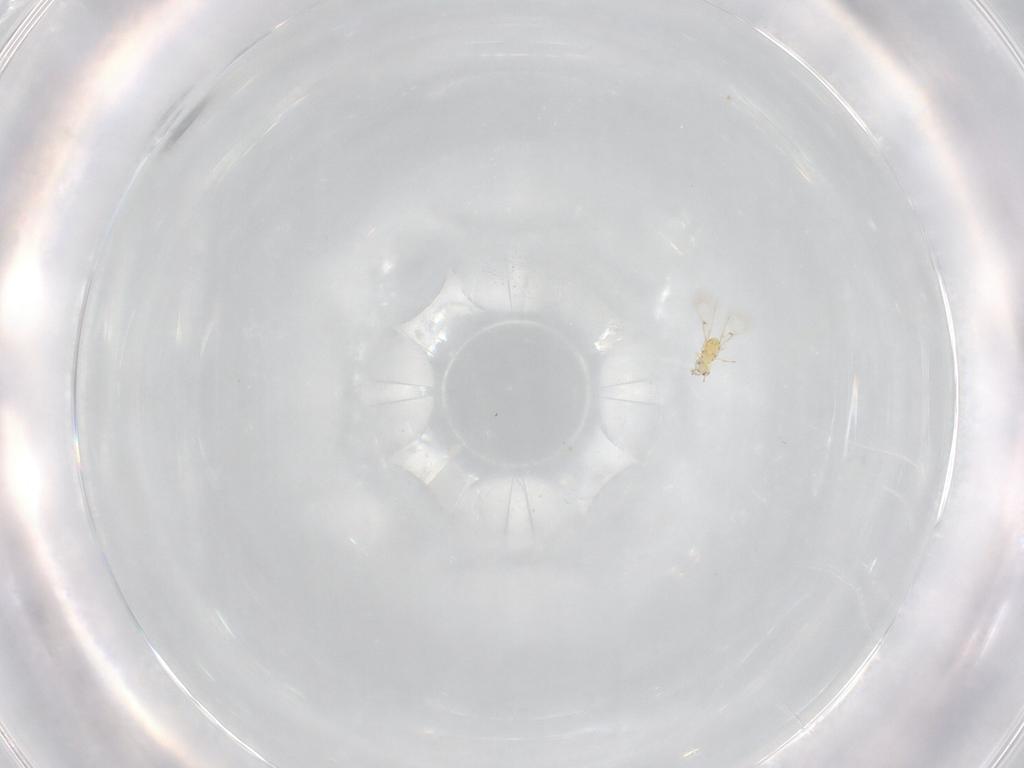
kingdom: Animalia
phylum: Arthropoda
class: Insecta
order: Hymenoptera
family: Trichogrammatidae
